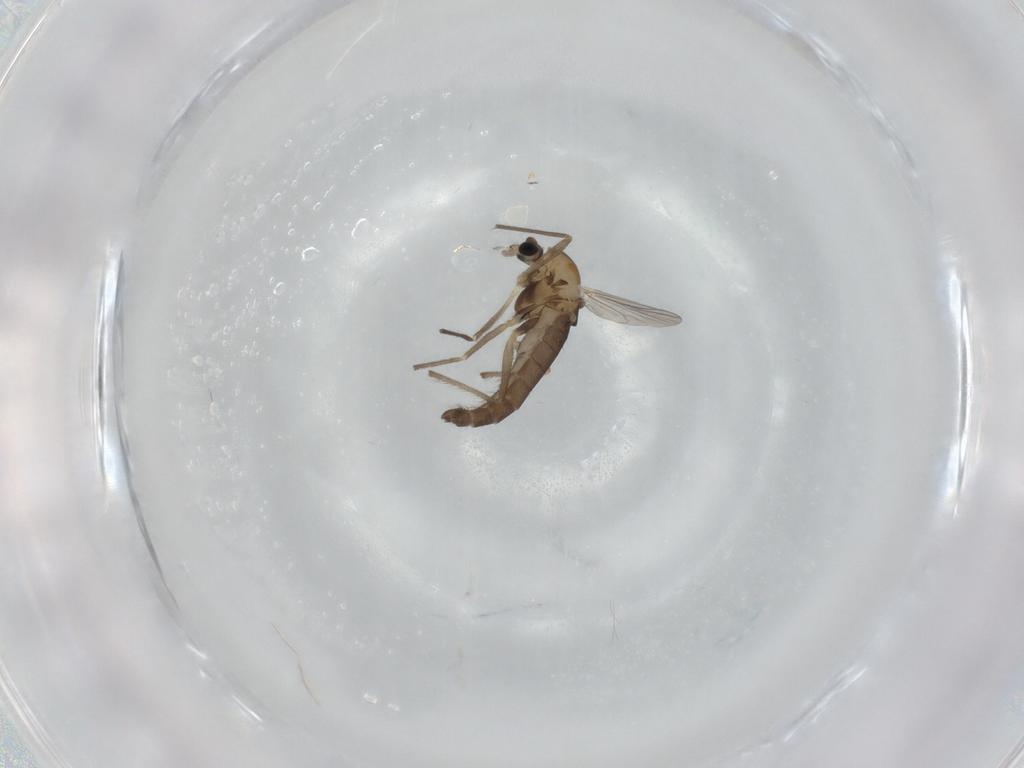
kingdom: Animalia
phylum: Arthropoda
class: Insecta
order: Diptera
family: Chironomidae
